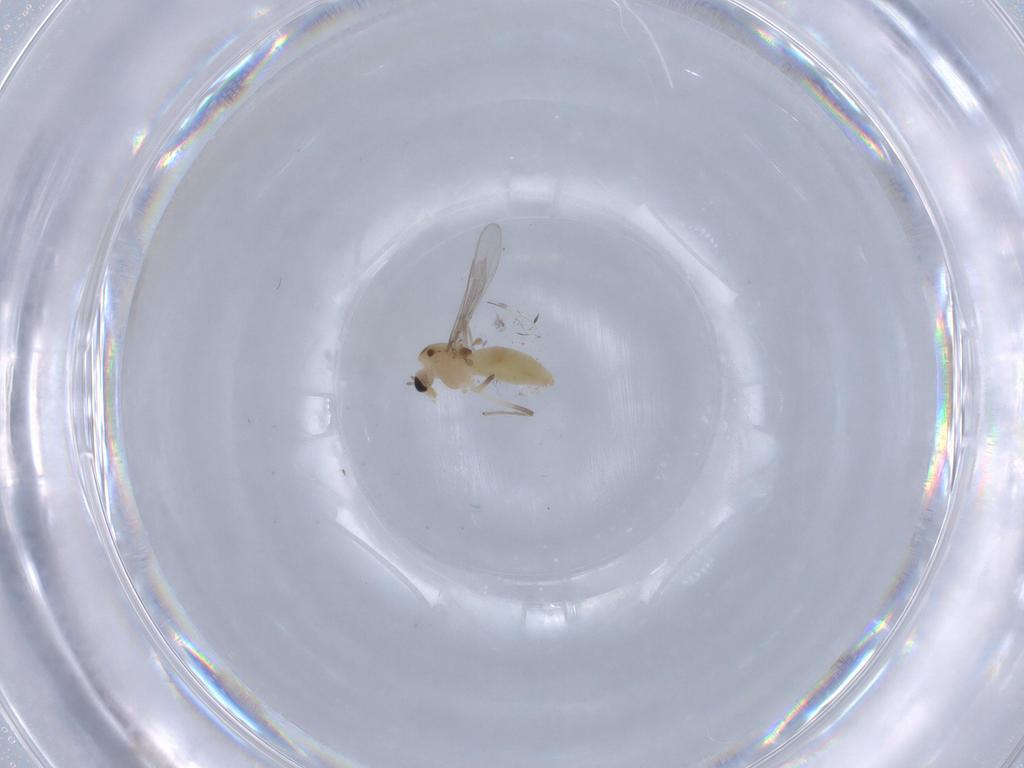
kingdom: Animalia
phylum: Arthropoda
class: Insecta
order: Diptera
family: Chironomidae
